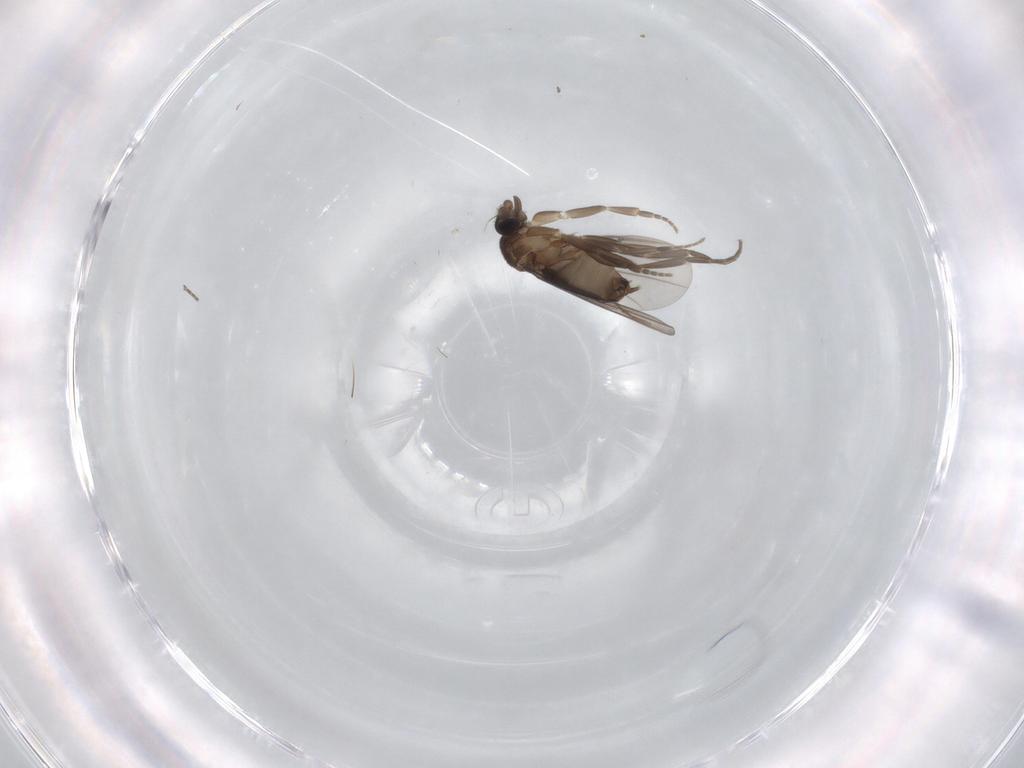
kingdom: Animalia
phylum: Arthropoda
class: Insecta
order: Diptera
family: Phoridae
